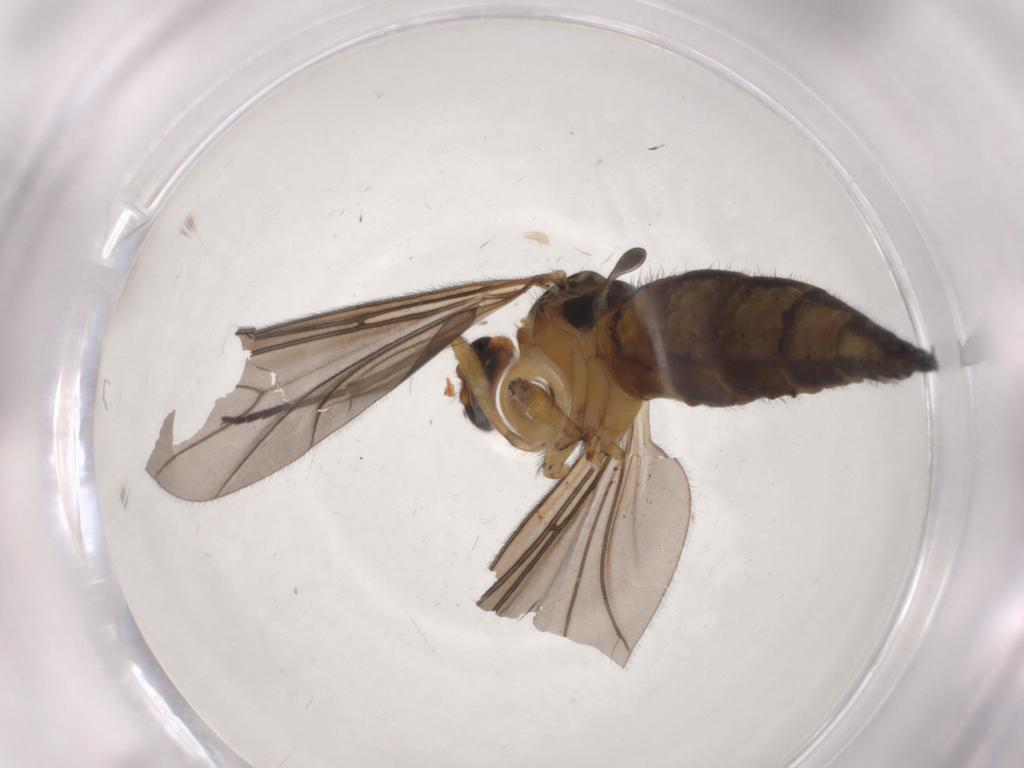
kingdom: Animalia
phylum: Arthropoda
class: Insecta
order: Diptera
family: Sciaridae
